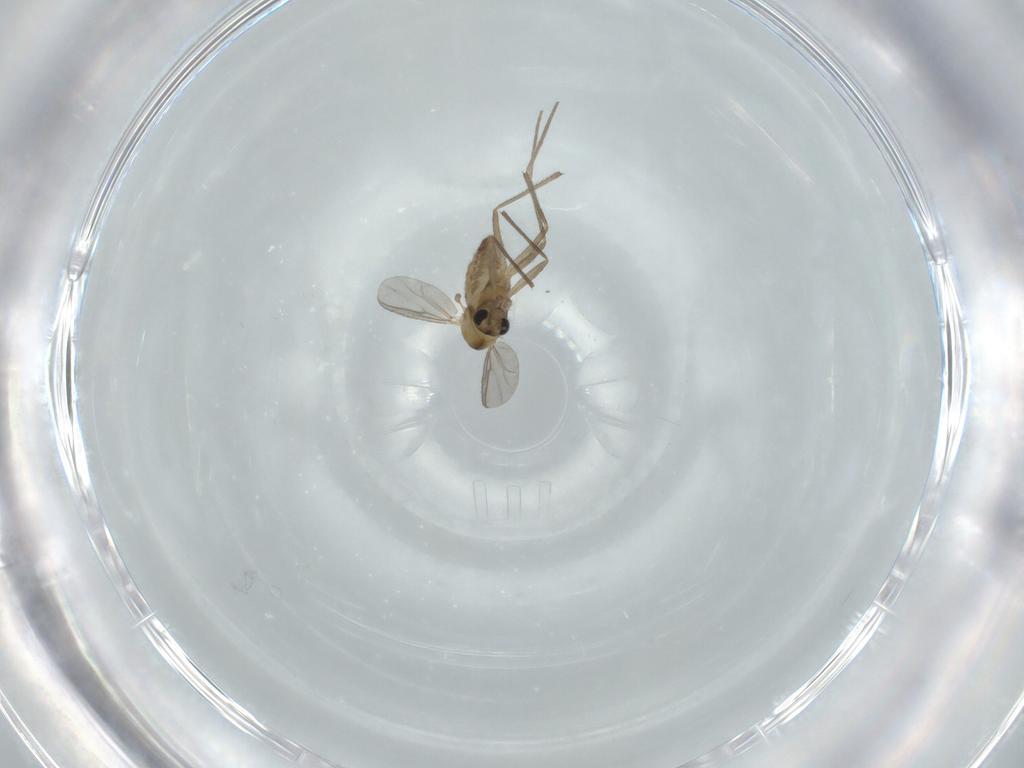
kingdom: Animalia
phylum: Arthropoda
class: Insecta
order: Diptera
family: Chironomidae
